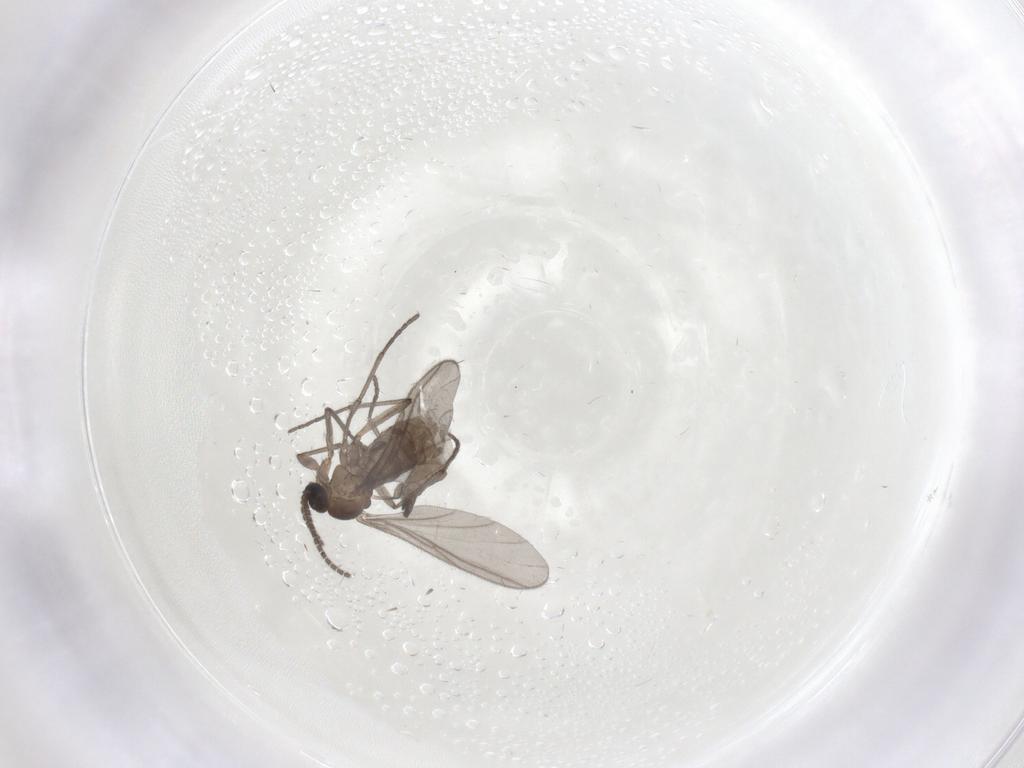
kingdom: Animalia
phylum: Arthropoda
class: Insecta
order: Diptera
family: Sciaridae
